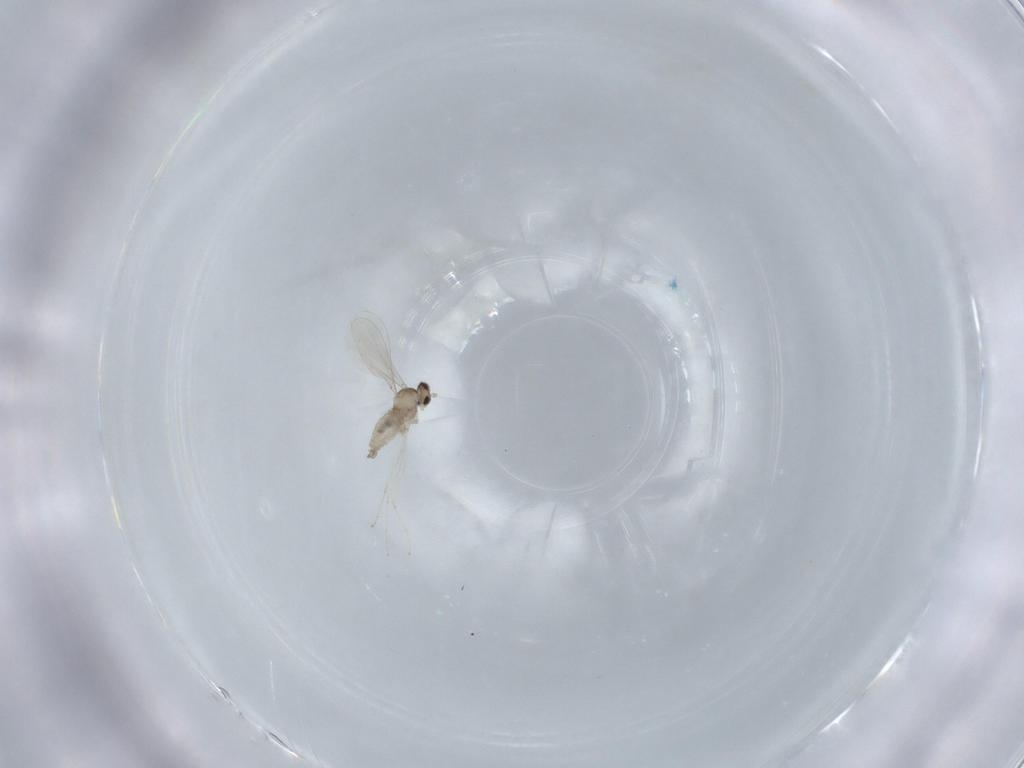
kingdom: Animalia
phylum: Arthropoda
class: Insecta
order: Diptera
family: Cecidomyiidae
